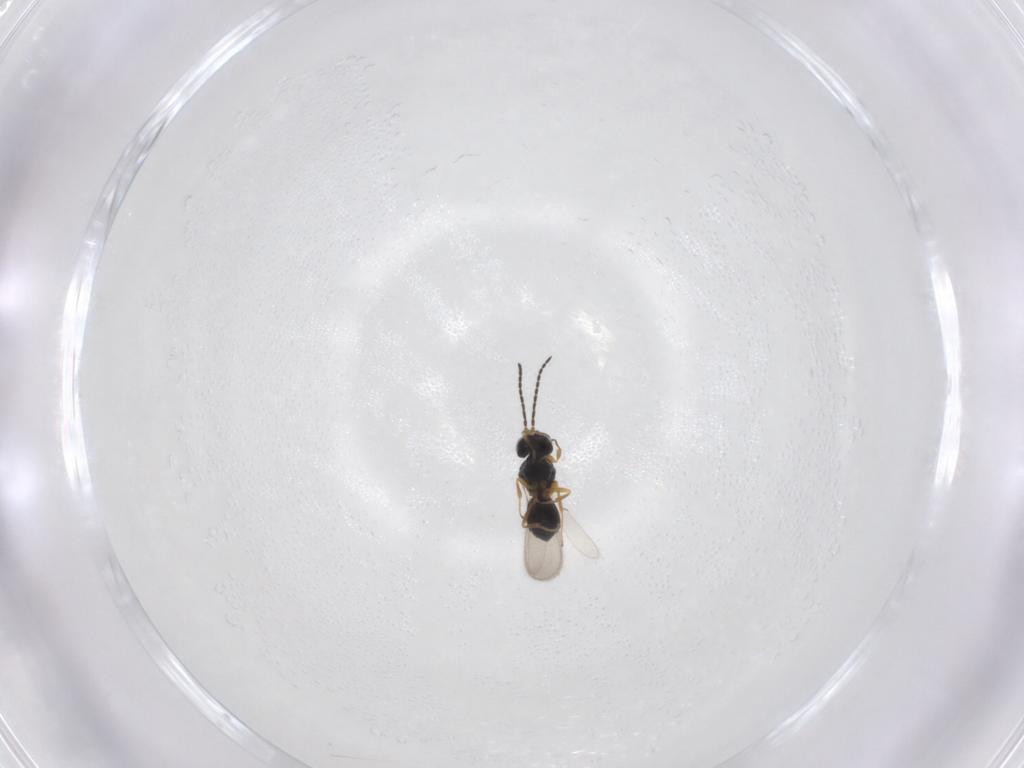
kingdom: Animalia
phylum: Arthropoda
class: Insecta
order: Hymenoptera
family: Scelionidae
